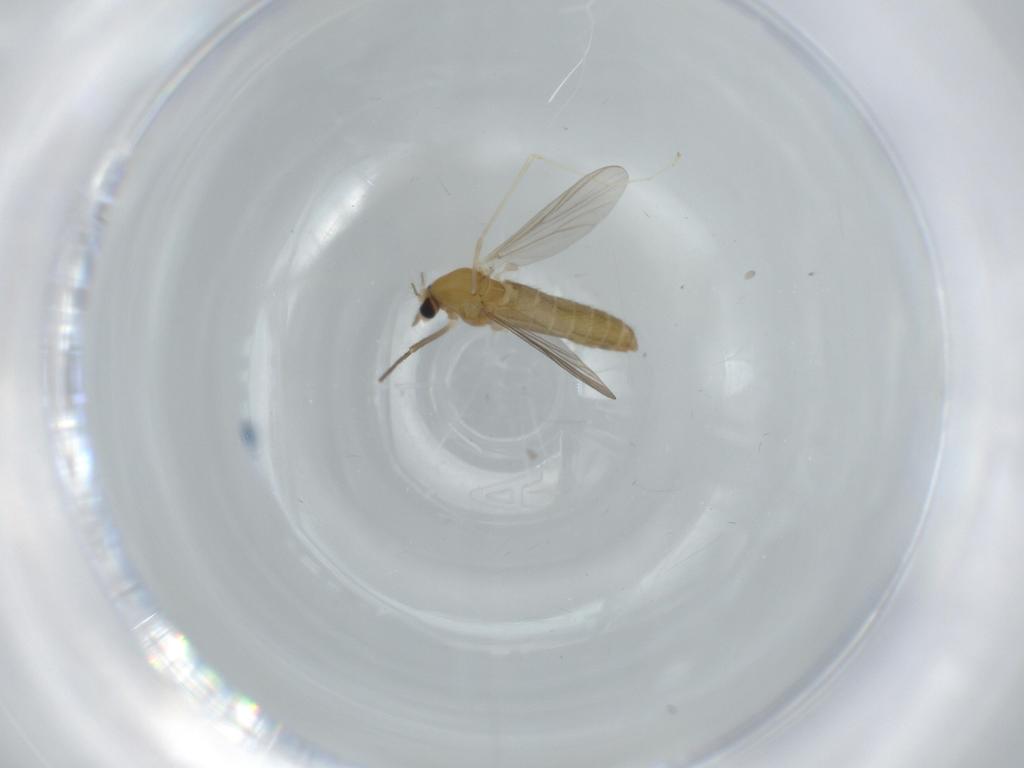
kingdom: Animalia
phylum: Arthropoda
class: Insecta
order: Diptera
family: Chironomidae
